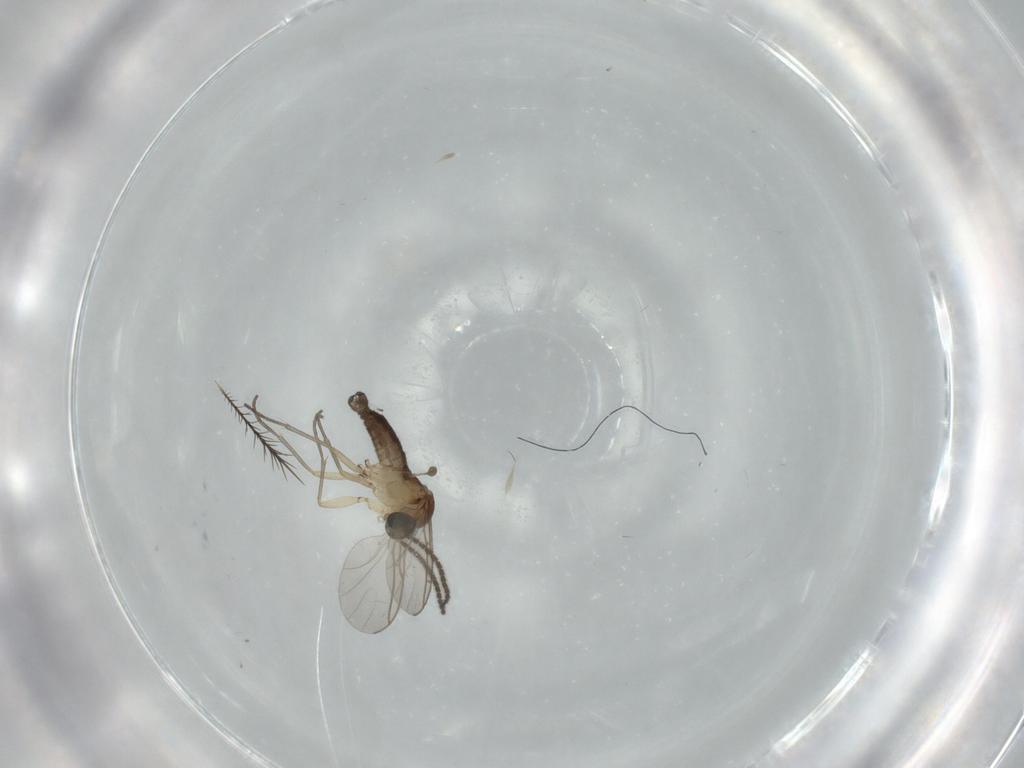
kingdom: Animalia
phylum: Arthropoda
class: Insecta
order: Diptera
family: Sciaridae
